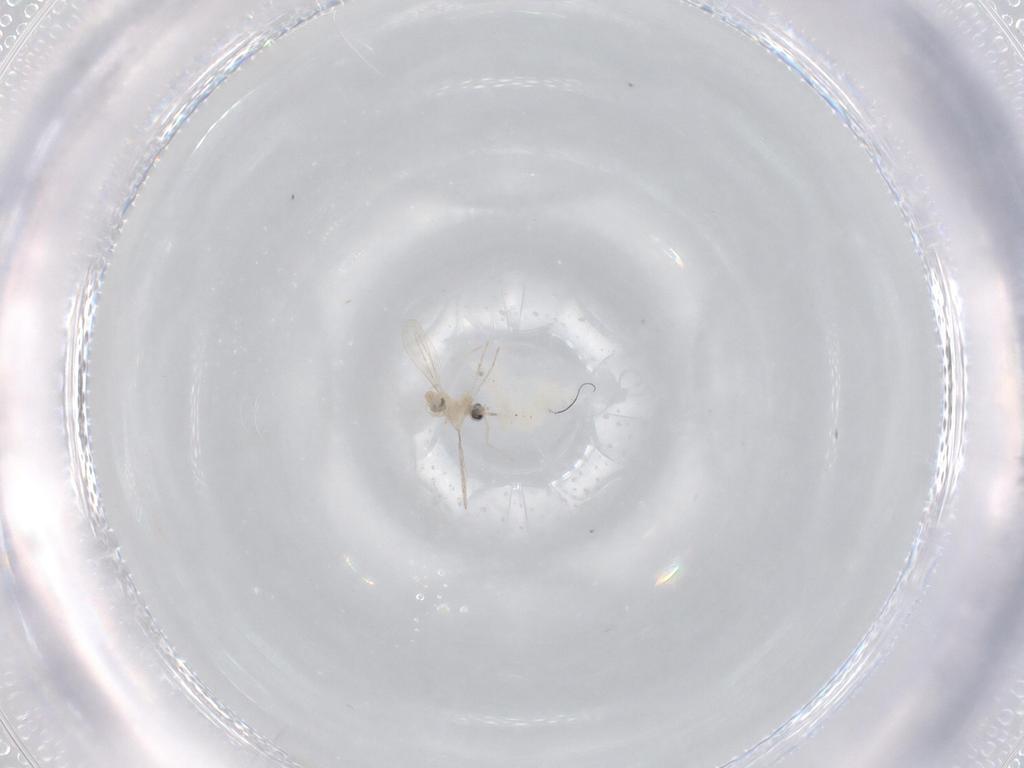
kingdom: Animalia
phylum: Arthropoda
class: Insecta
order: Diptera
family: Cecidomyiidae
